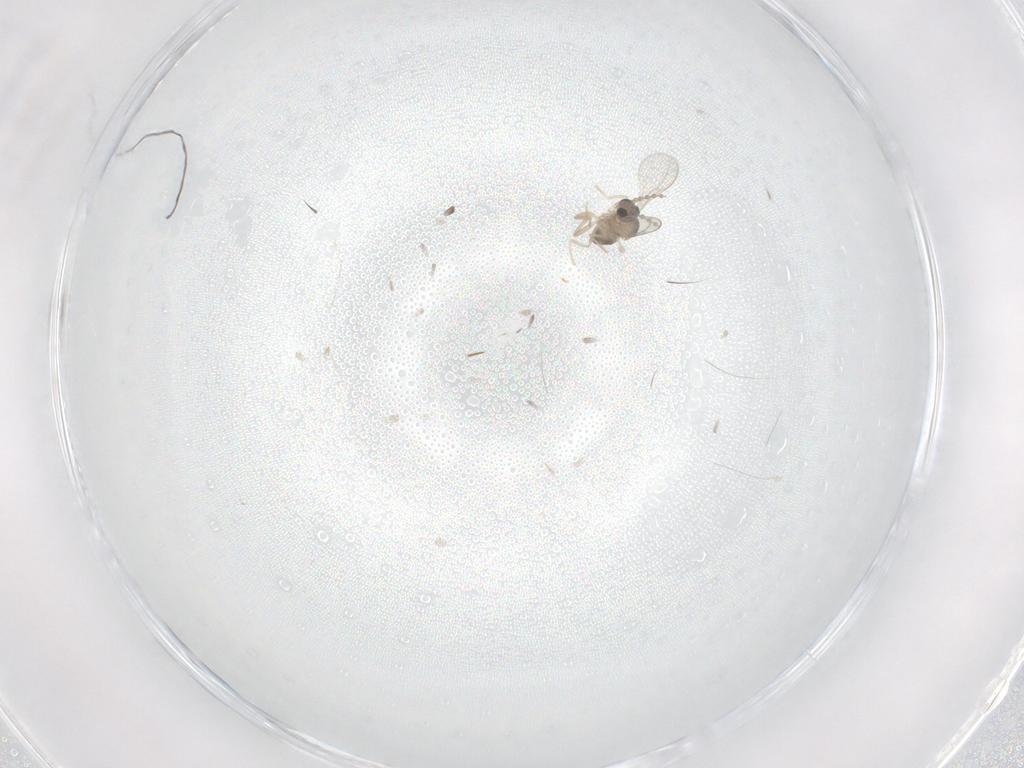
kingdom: Animalia
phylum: Arthropoda
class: Insecta
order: Diptera
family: Cecidomyiidae
